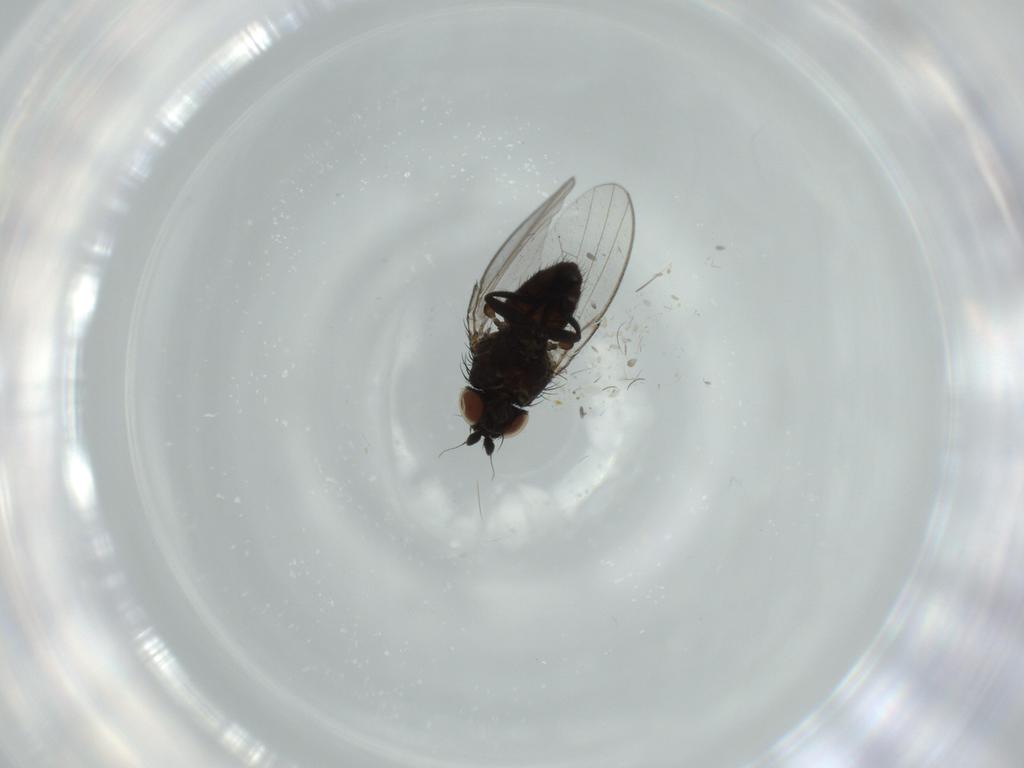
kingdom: Animalia
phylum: Arthropoda
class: Insecta
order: Diptera
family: Milichiidae
